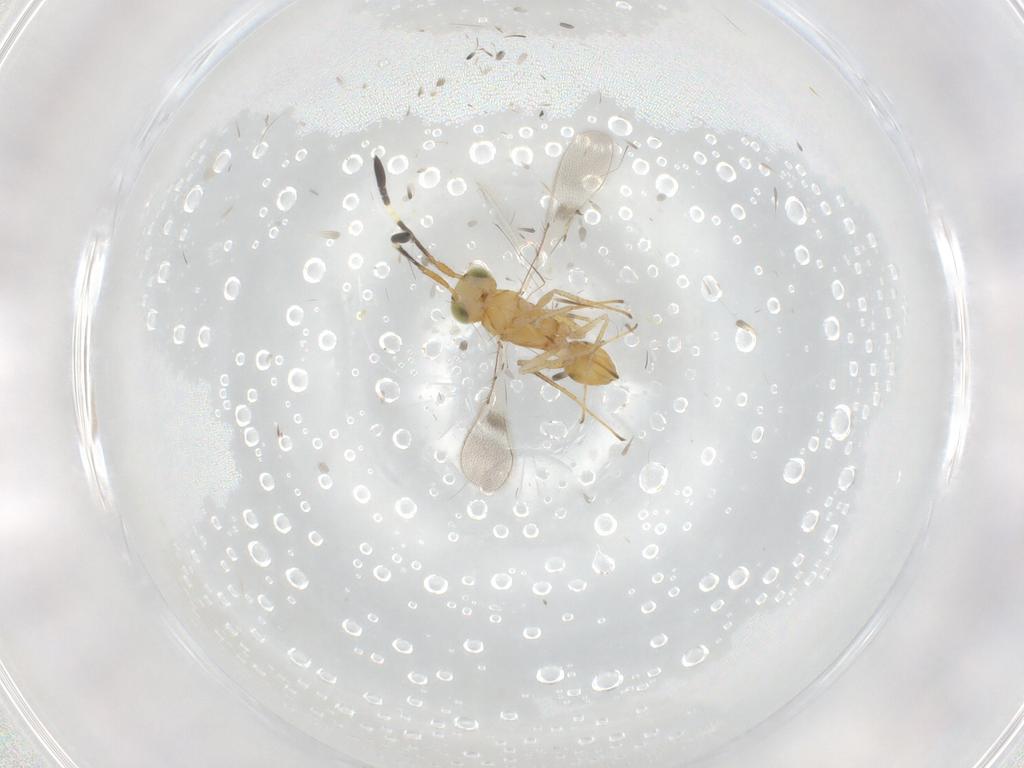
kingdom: Animalia
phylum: Arthropoda
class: Insecta
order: Hymenoptera
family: Mymaridae
